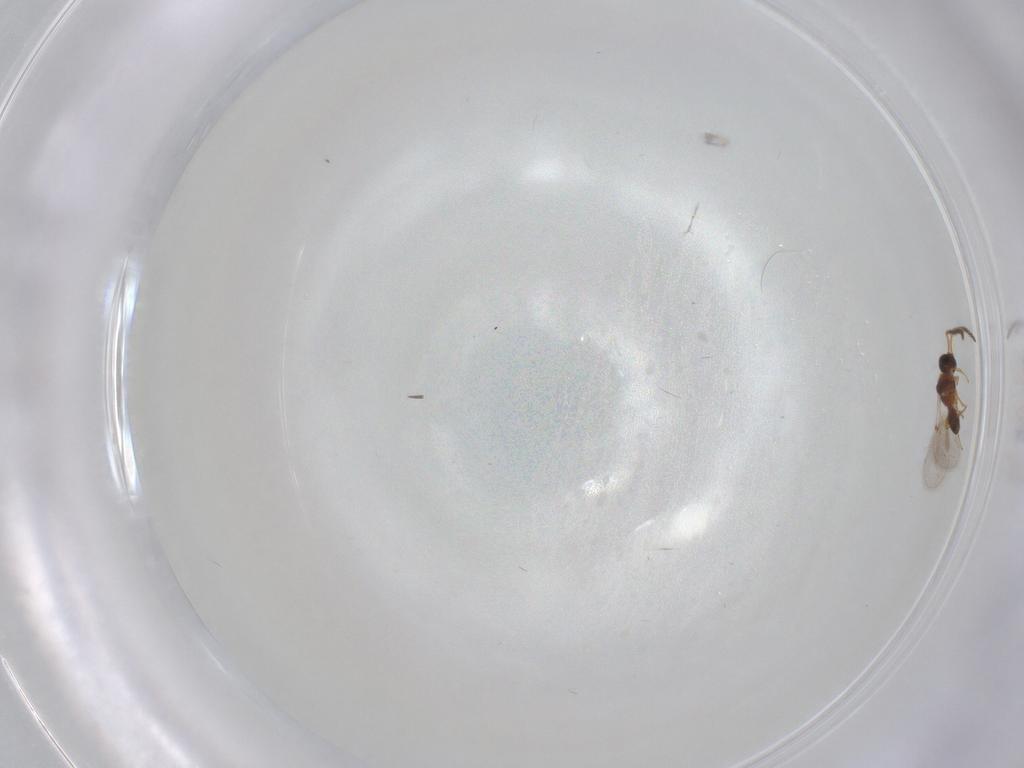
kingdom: Animalia
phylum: Arthropoda
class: Insecta
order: Hymenoptera
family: Diapriidae
